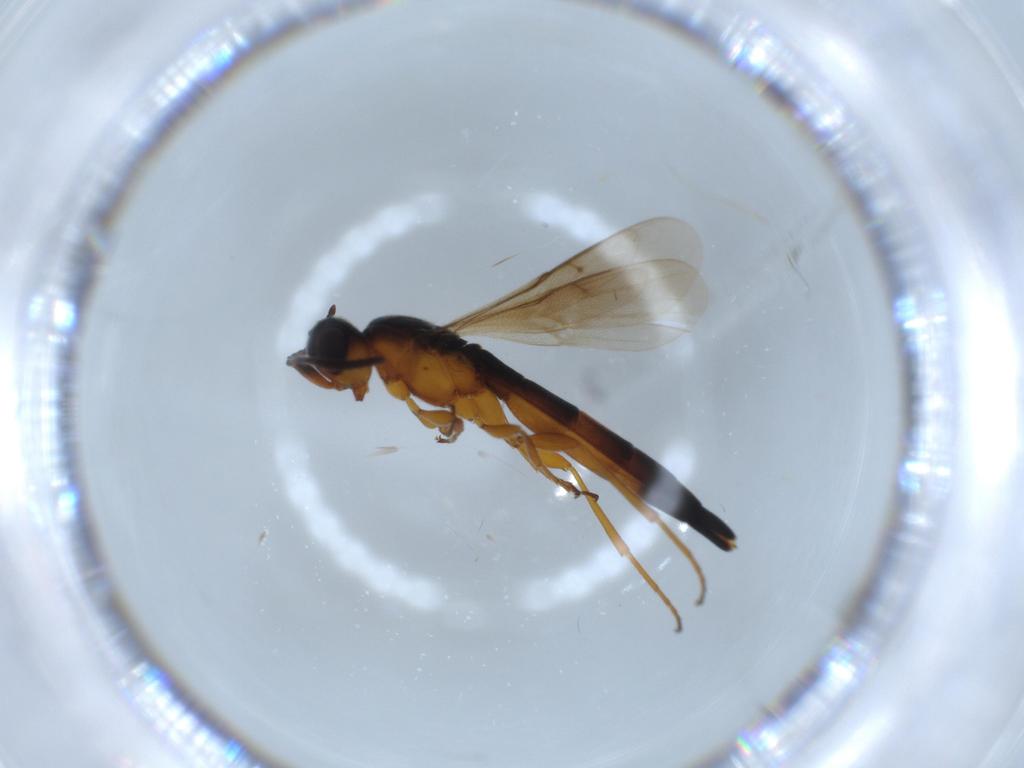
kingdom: Animalia
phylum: Arthropoda
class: Insecta
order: Hymenoptera
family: Scelionidae
